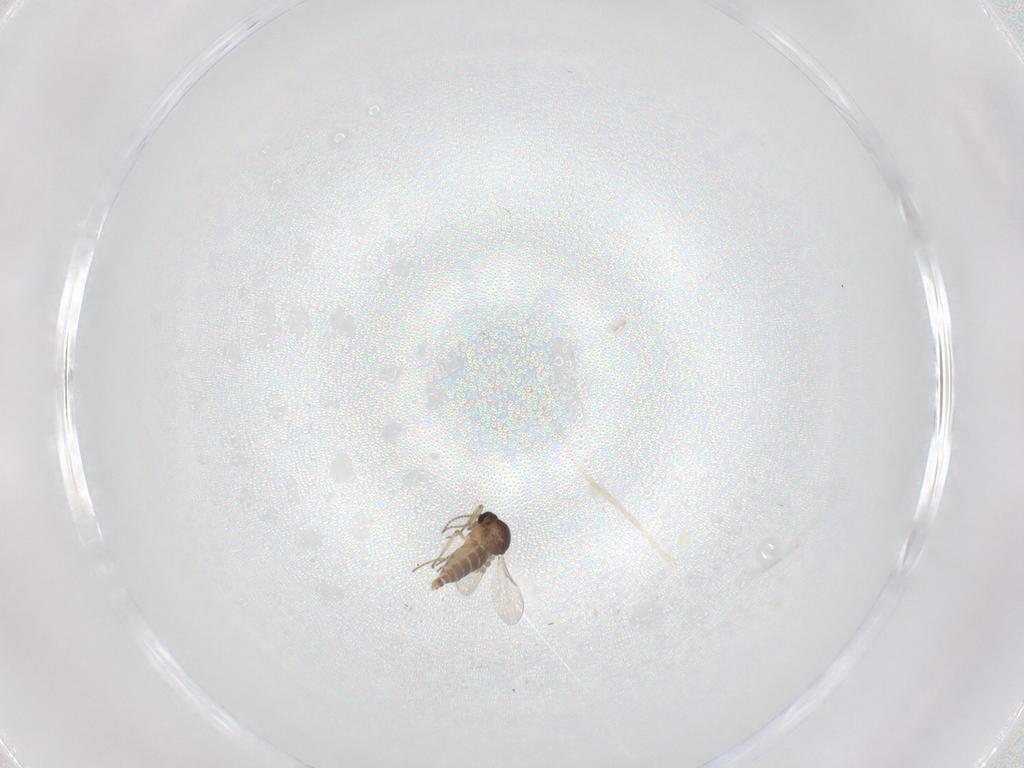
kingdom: Animalia
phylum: Arthropoda
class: Insecta
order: Diptera
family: Ceratopogonidae
